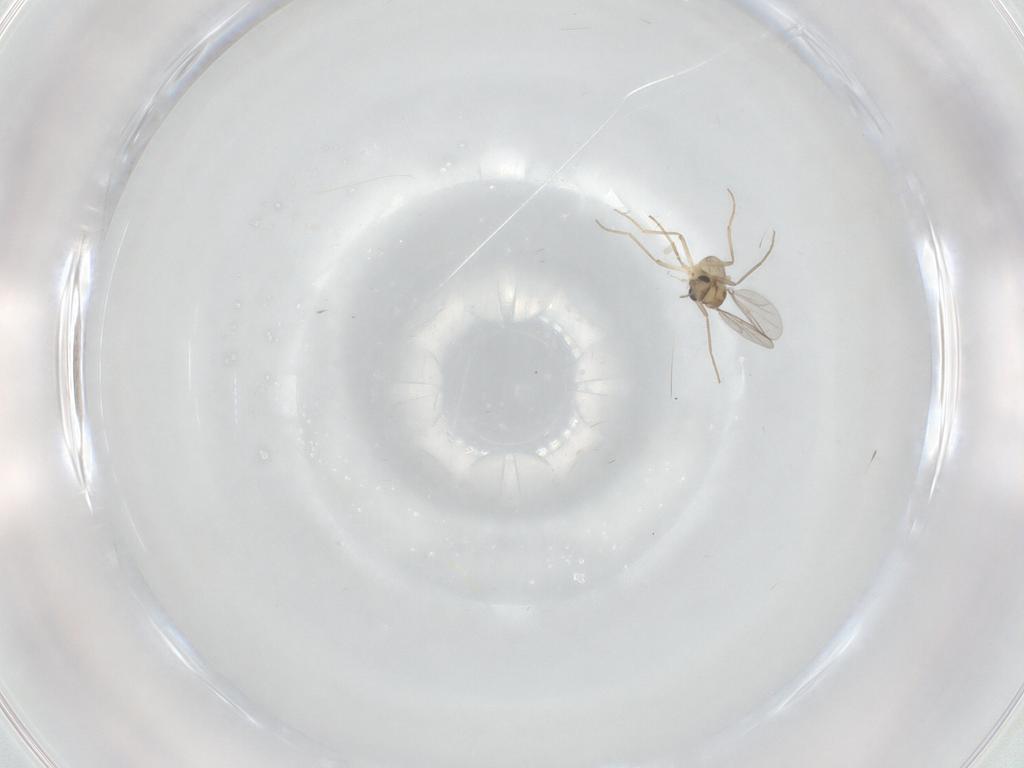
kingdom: Animalia
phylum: Arthropoda
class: Insecta
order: Diptera
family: Chironomidae
